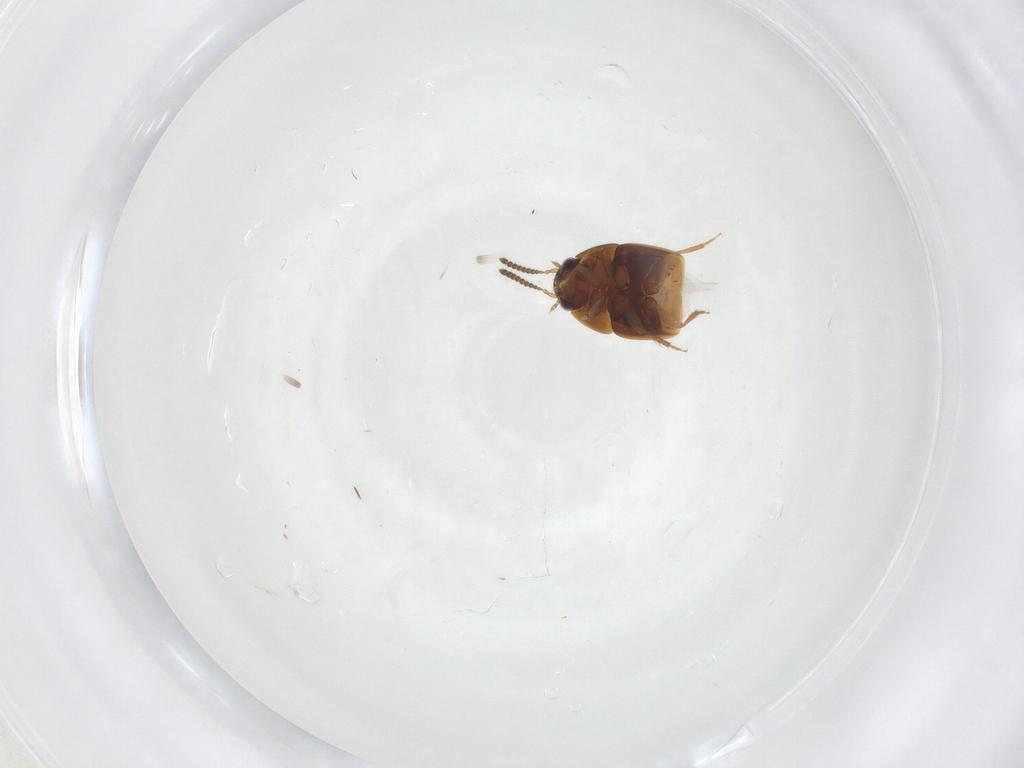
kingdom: Animalia
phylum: Arthropoda
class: Insecta
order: Coleoptera
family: Staphylinidae
